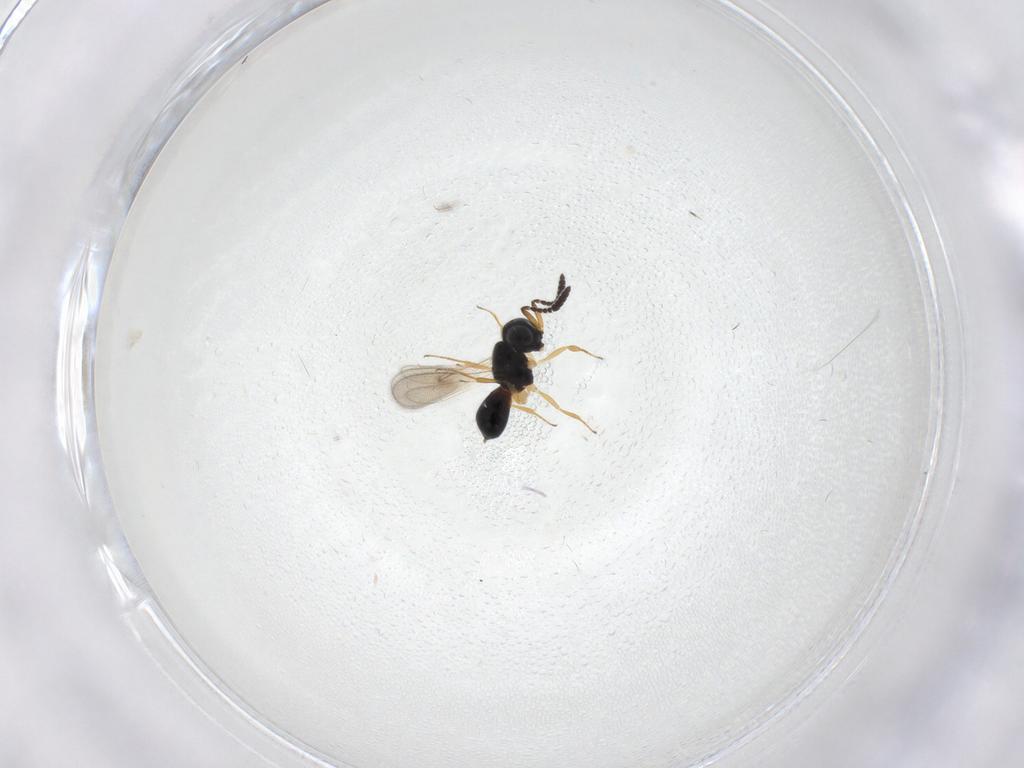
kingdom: Animalia
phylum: Arthropoda
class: Insecta
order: Hymenoptera
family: Scelionidae
